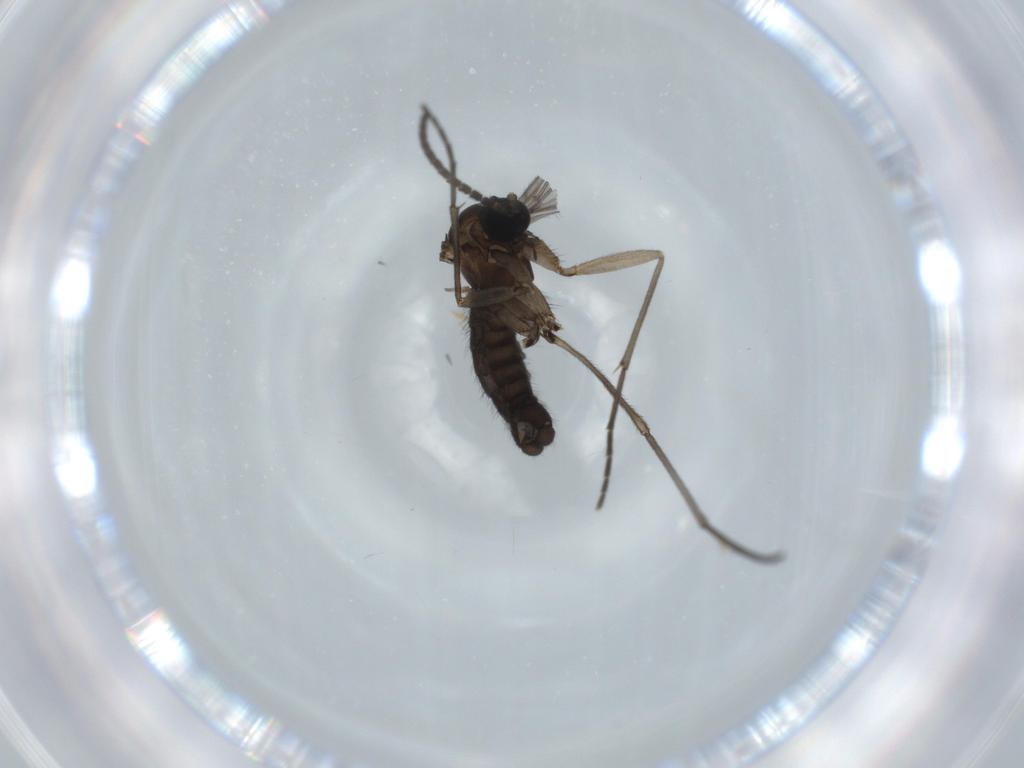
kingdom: Animalia
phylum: Arthropoda
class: Insecta
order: Diptera
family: Sciaridae
